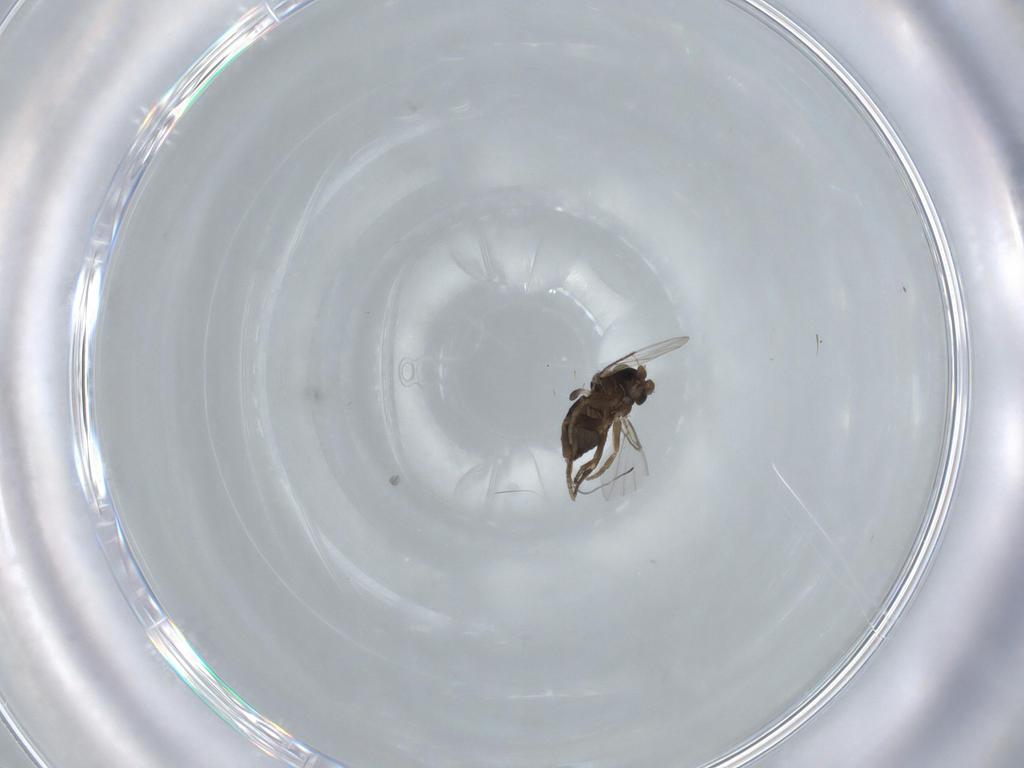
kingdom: Animalia
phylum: Arthropoda
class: Insecta
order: Diptera
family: Phoridae
